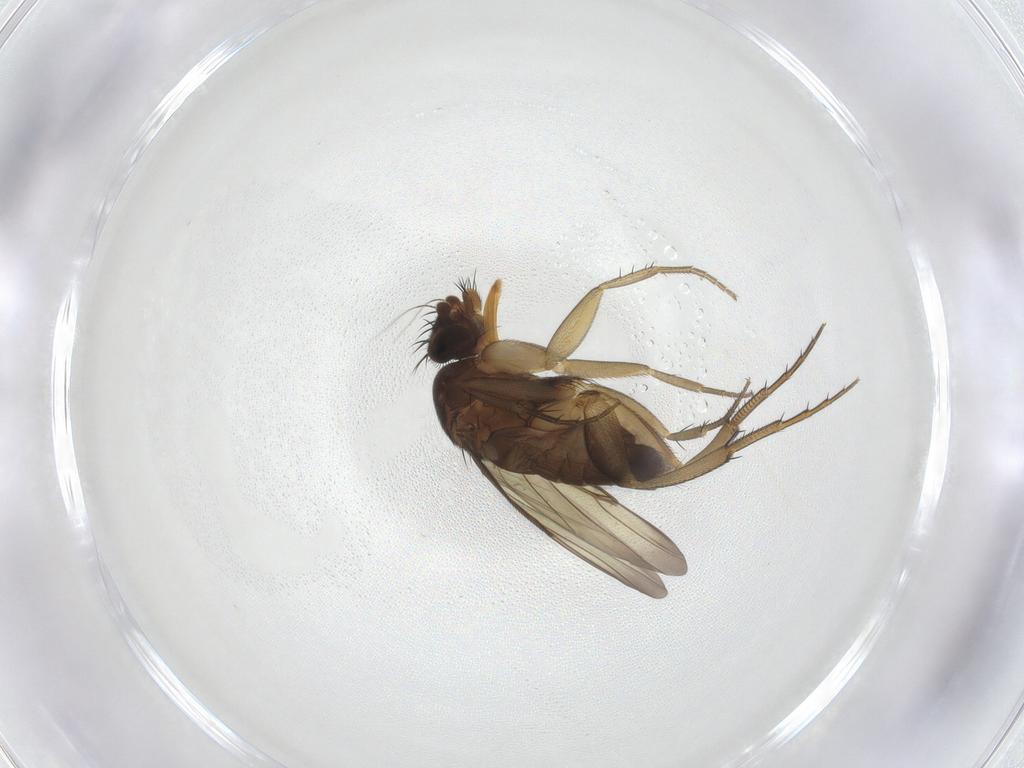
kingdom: Animalia
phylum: Arthropoda
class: Insecta
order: Diptera
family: Phoridae
